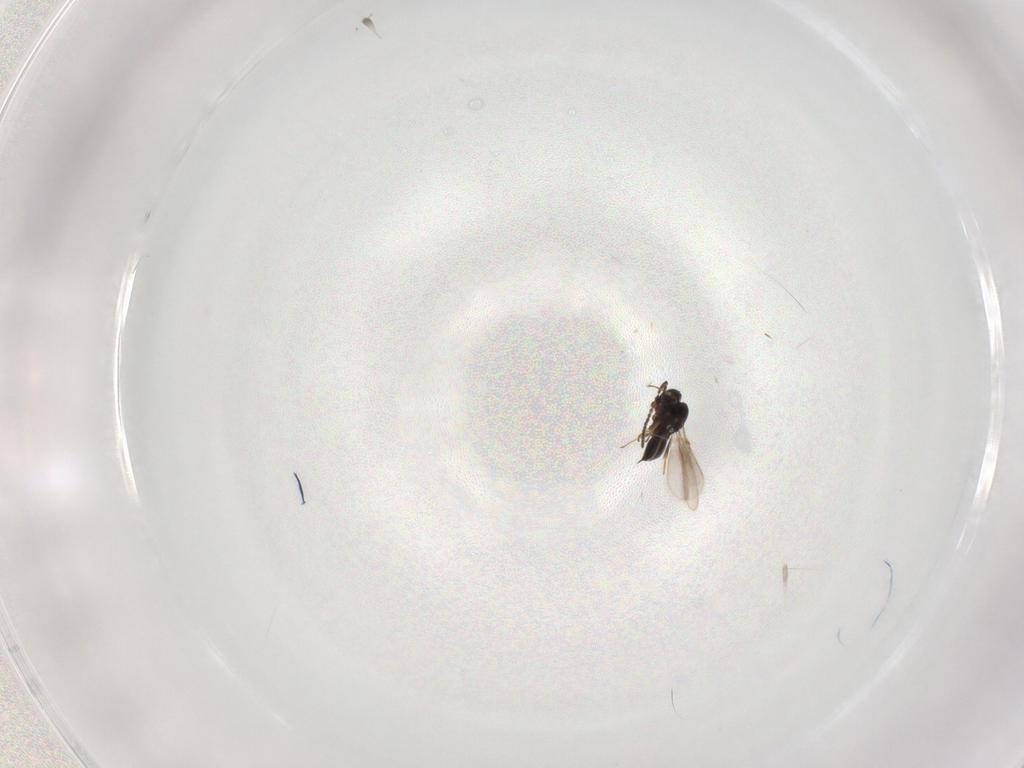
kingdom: Animalia
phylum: Arthropoda
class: Insecta
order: Hymenoptera
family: Scelionidae
